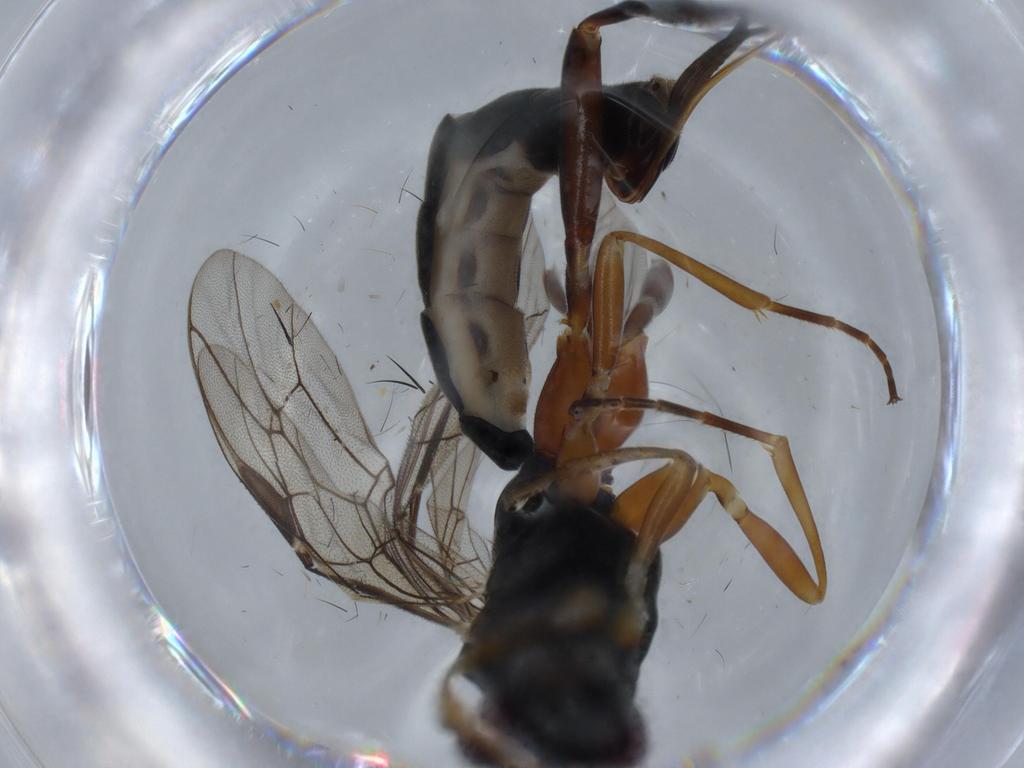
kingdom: Animalia
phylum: Arthropoda
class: Insecta
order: Hymenoptera
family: Ichneumonidae
